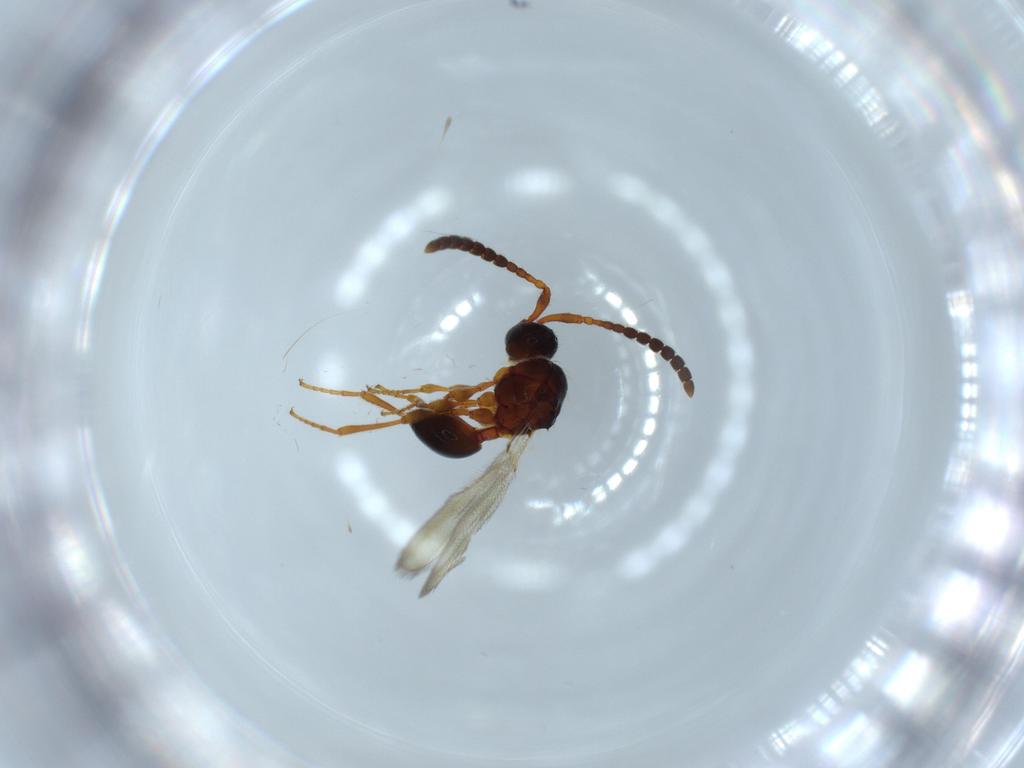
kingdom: Animalia
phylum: Arthropoda
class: Insecta
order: Hymenoptera
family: Diapriidae
